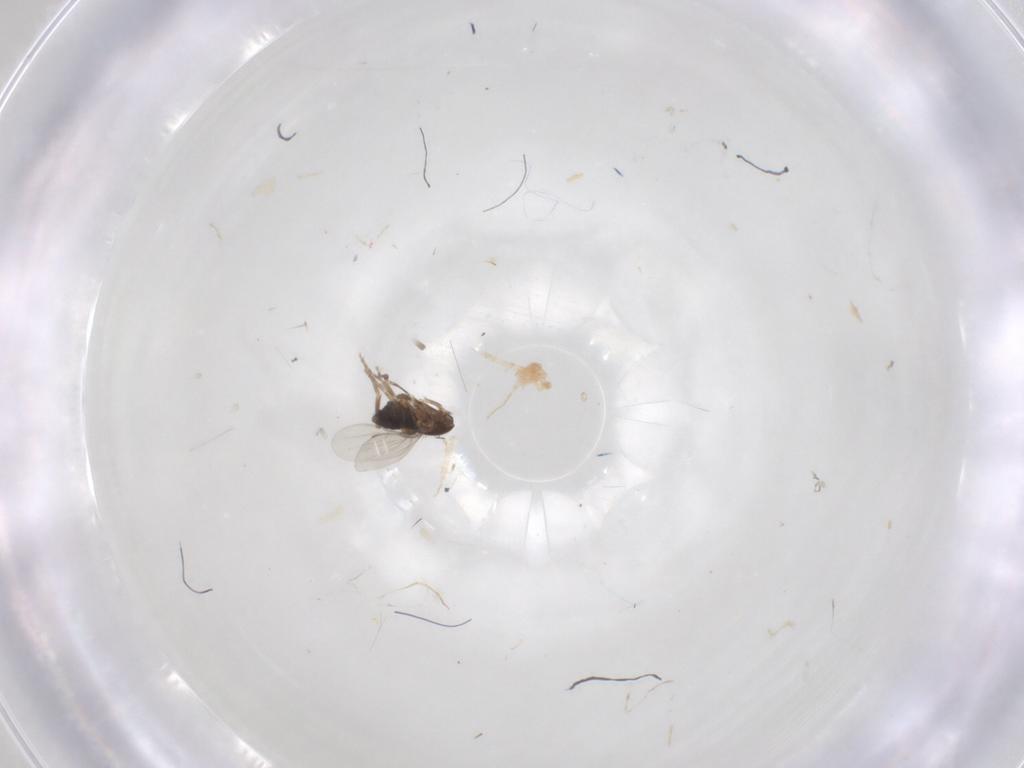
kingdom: Animalia
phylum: Arthropoda
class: Insecta
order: Diptera
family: Phoridae
